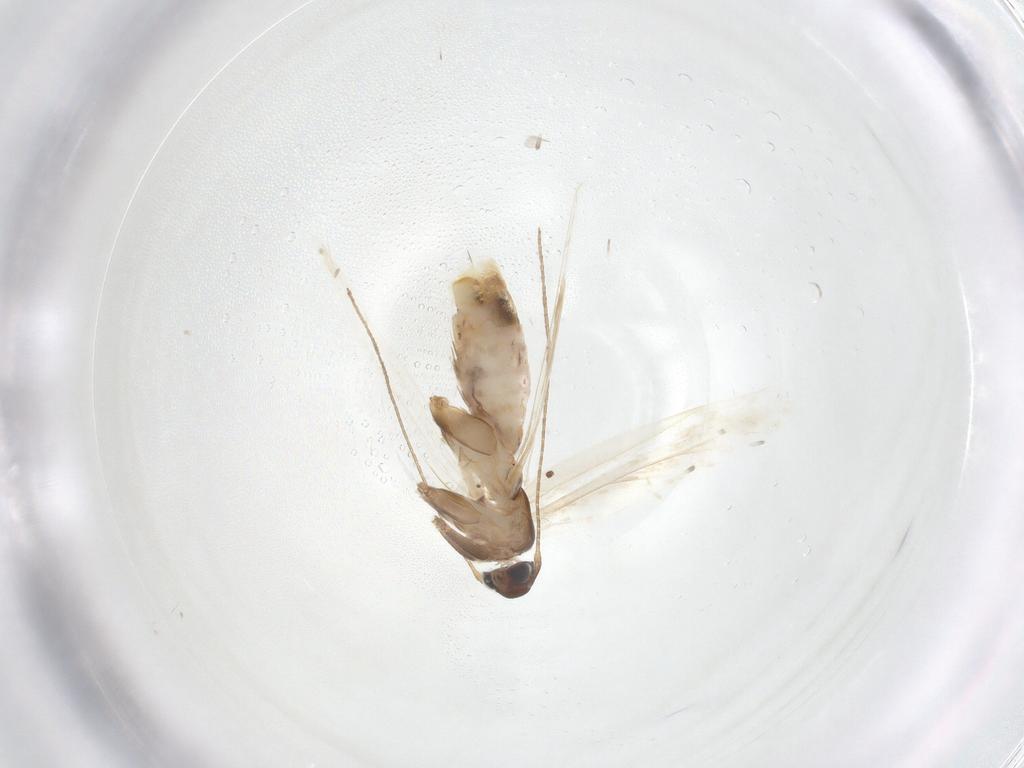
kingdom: Animalia
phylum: Arthropoda
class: Insecta
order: Lepidoptera
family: Gelechiidae
